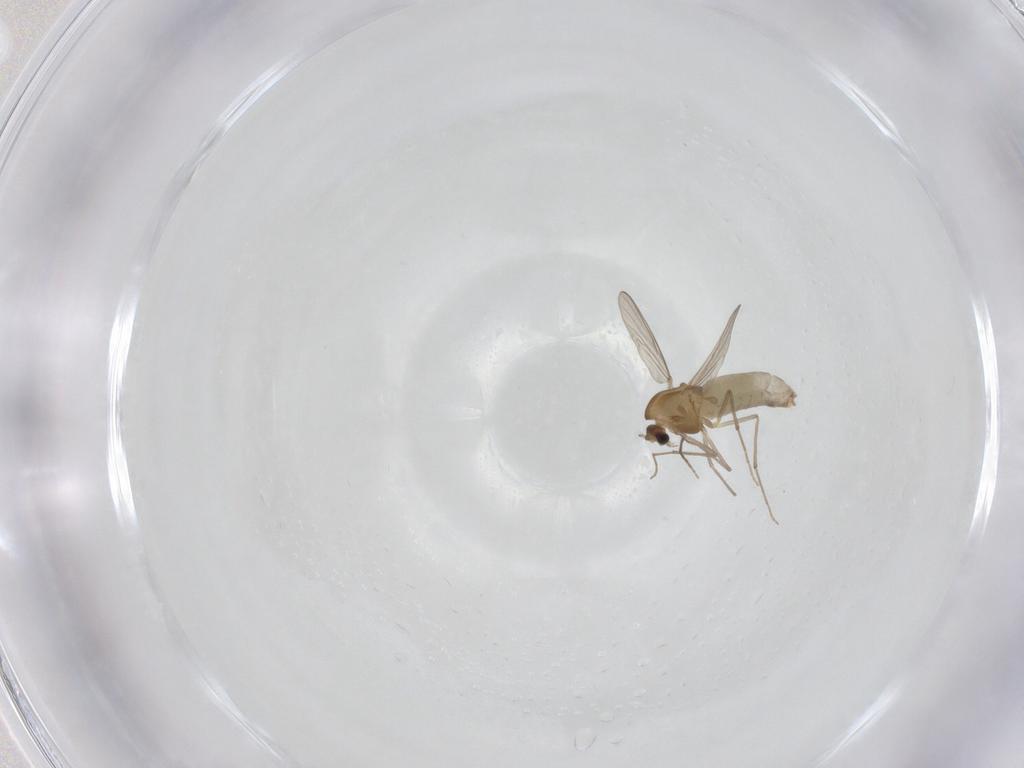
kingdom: Animalia
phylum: Arthropoda
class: Insecta
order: Diptera
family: Chironomidae
